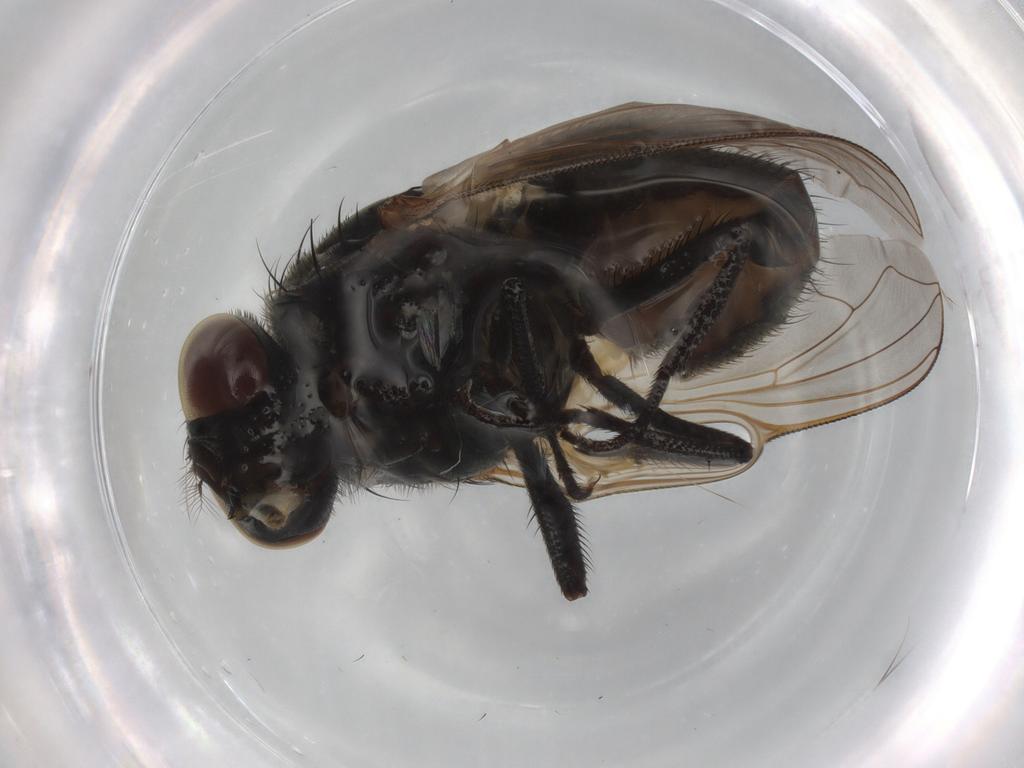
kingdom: Animalia
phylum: Arthropoda
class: Insecta
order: Diptera
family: Muscidae
